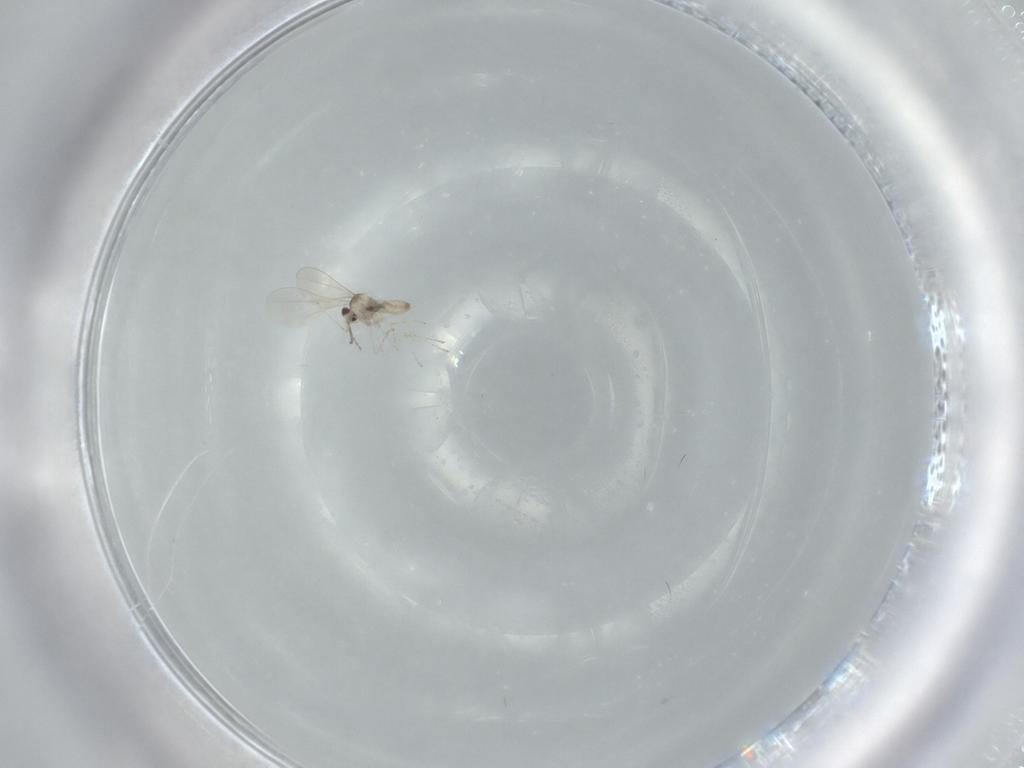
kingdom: Animalia
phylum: Arthropoda
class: Insecta
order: Diptera
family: Cecidomyiidae
